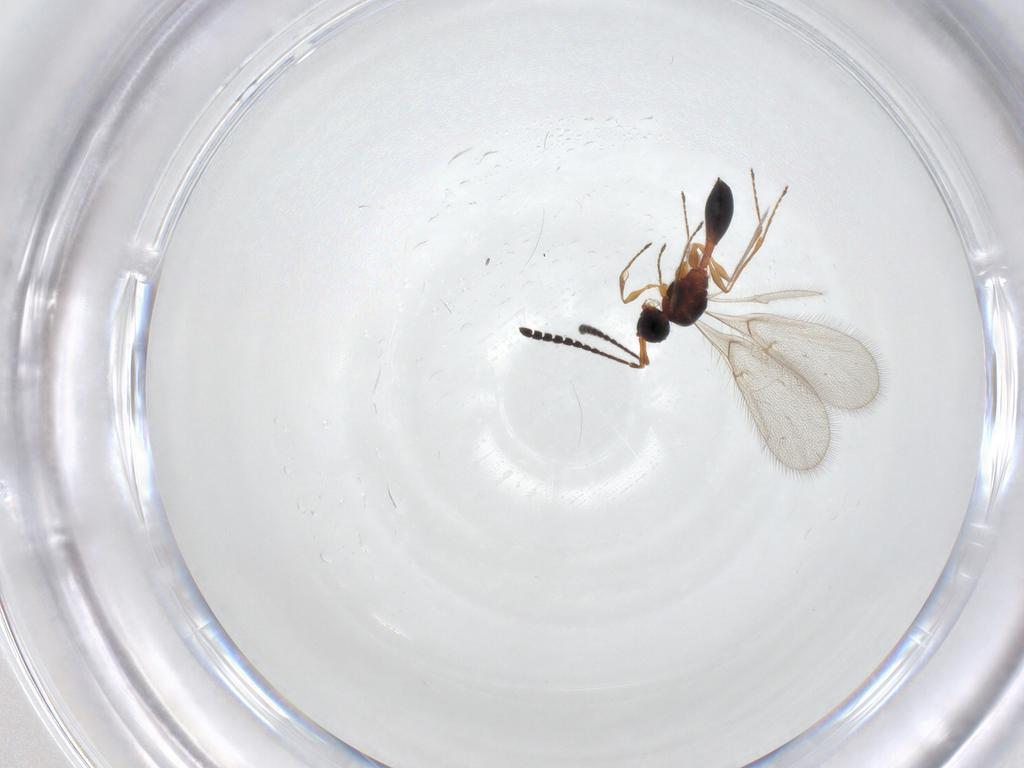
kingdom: Animalia
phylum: Arthropoda
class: Insecta
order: Hymenoptera
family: Diapriidae
